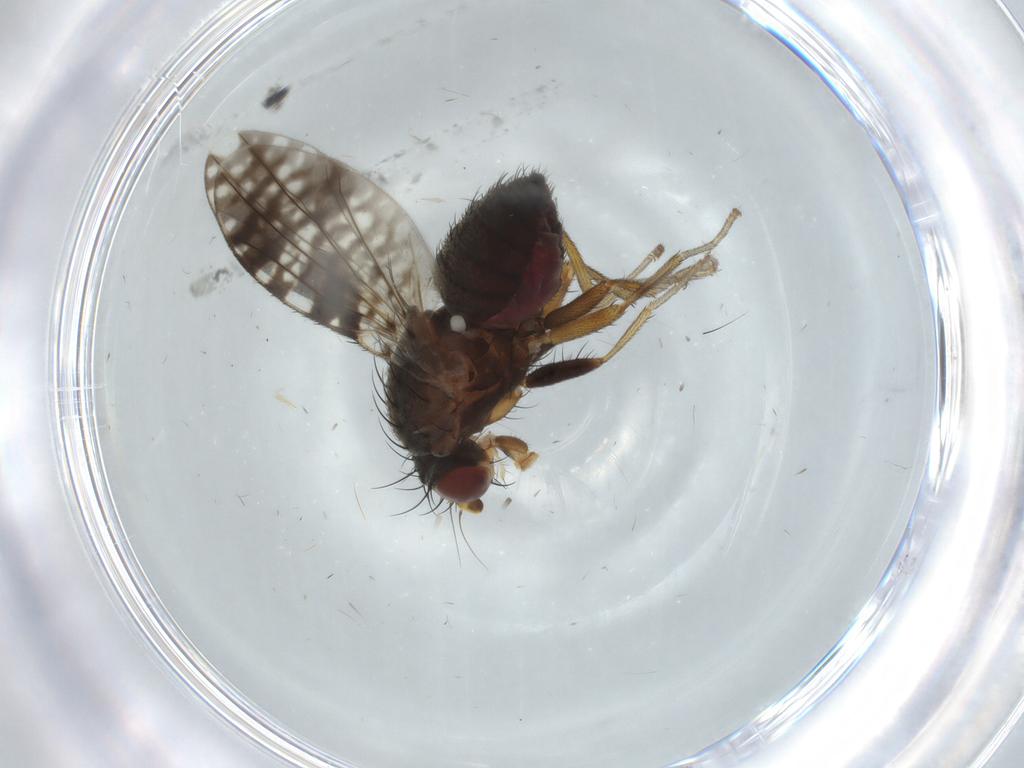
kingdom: Animalia
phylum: Arthropoda
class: Insecta
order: Diptera
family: Tephritidae
